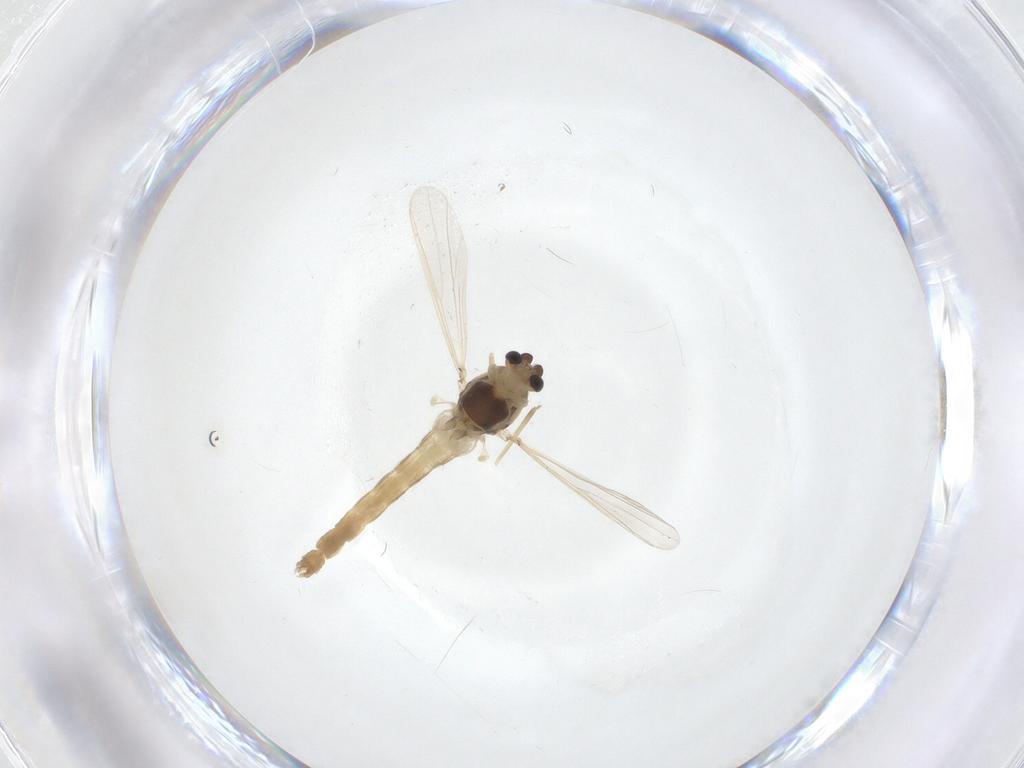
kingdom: Animalia
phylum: Arthropoda
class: Insecta
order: Diptera
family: Chironomidae
